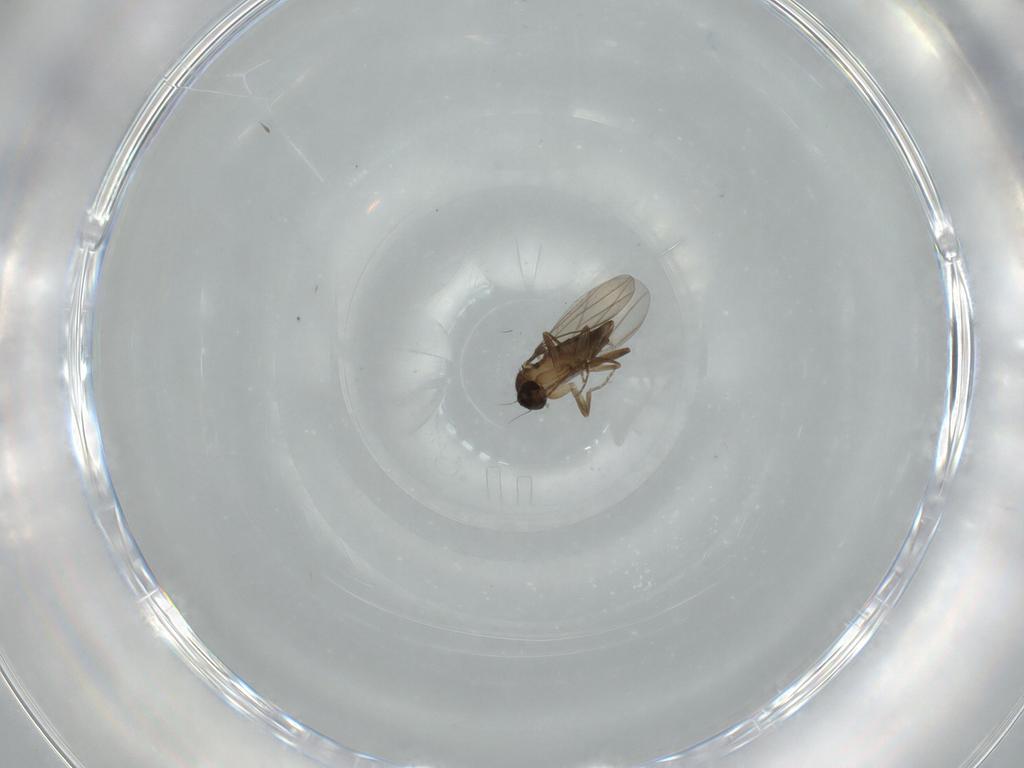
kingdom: Animalia
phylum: Arthropoda
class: Insecta
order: Diptera
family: Phoridae
